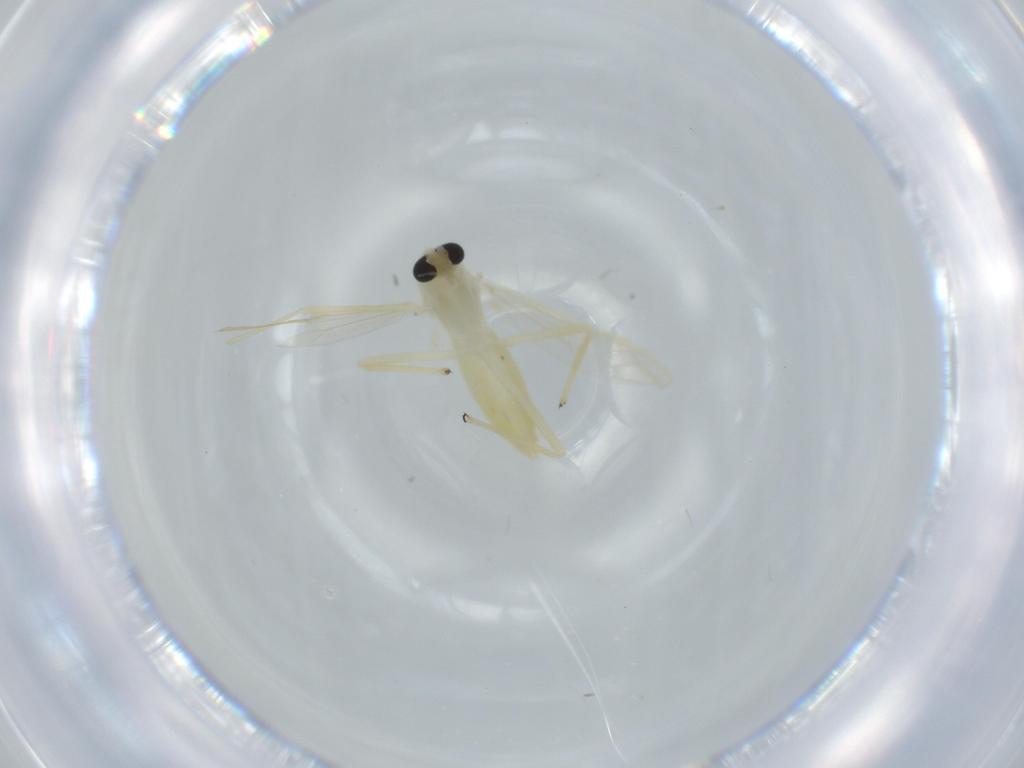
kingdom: Animalia
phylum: Arthropoda
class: Insecta
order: Diptera
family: Chironomidae
